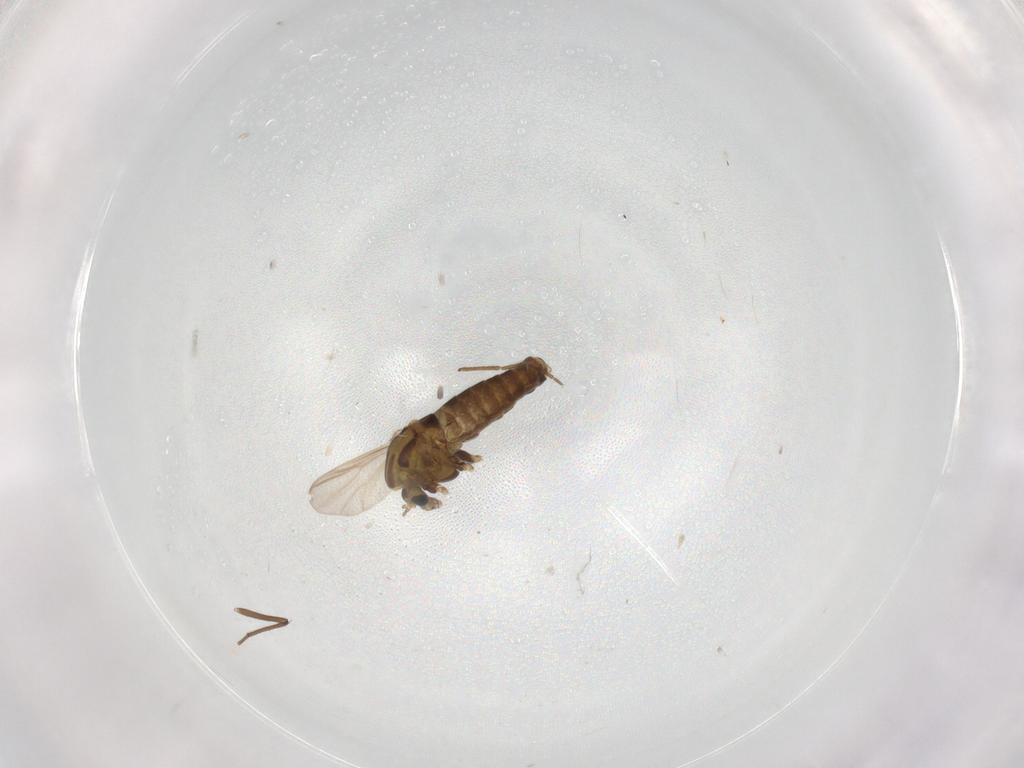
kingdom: Animalia
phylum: Arthropoda
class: Insecta
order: Diptera
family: Chironomidae
